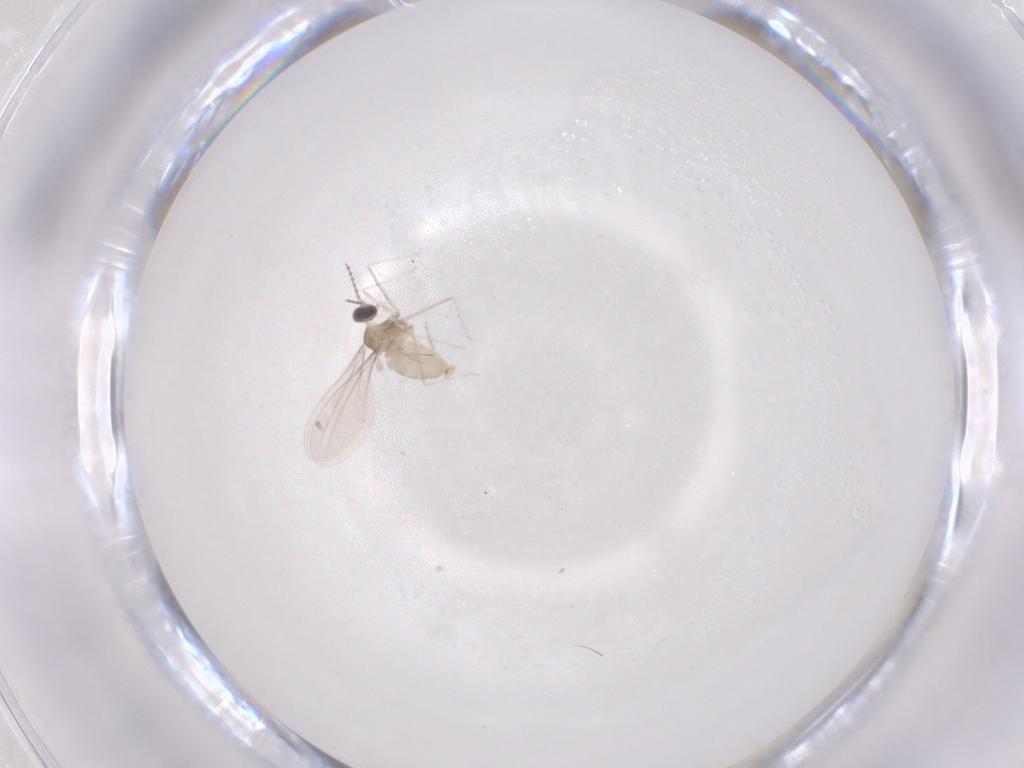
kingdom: Animalia
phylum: Arthropoda
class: Insecta
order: Diptera
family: Cecidomyiidae
